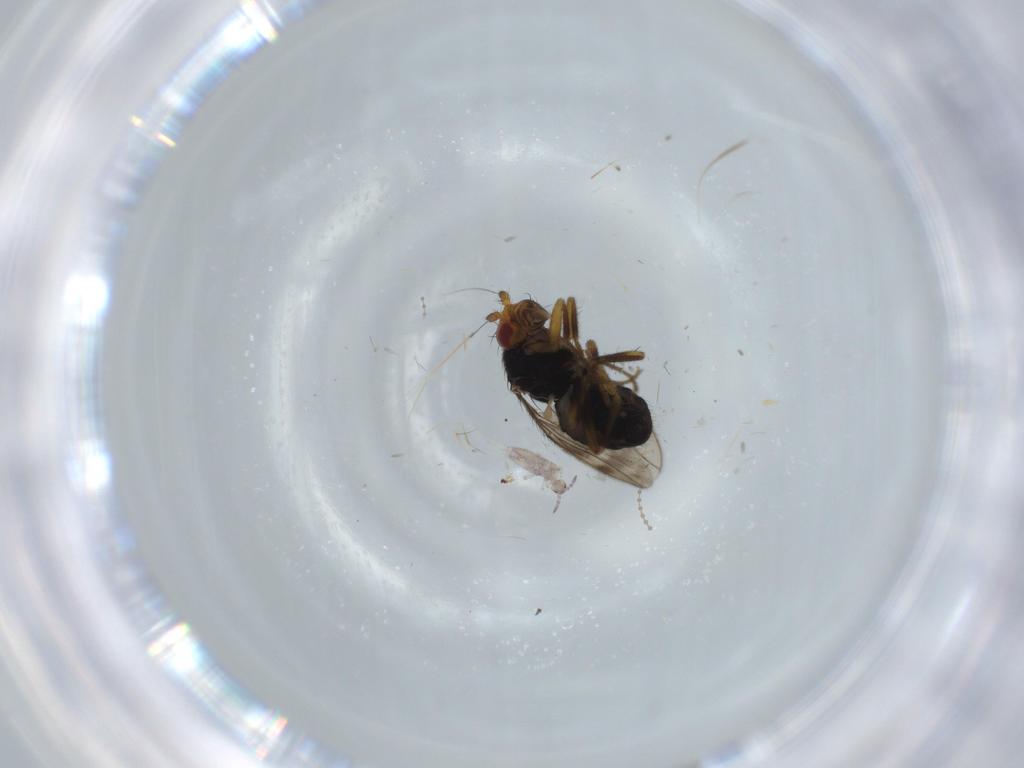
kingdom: Animalia
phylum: Arthropoda
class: Insecta
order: Diptera
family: Sphaeroceridae
